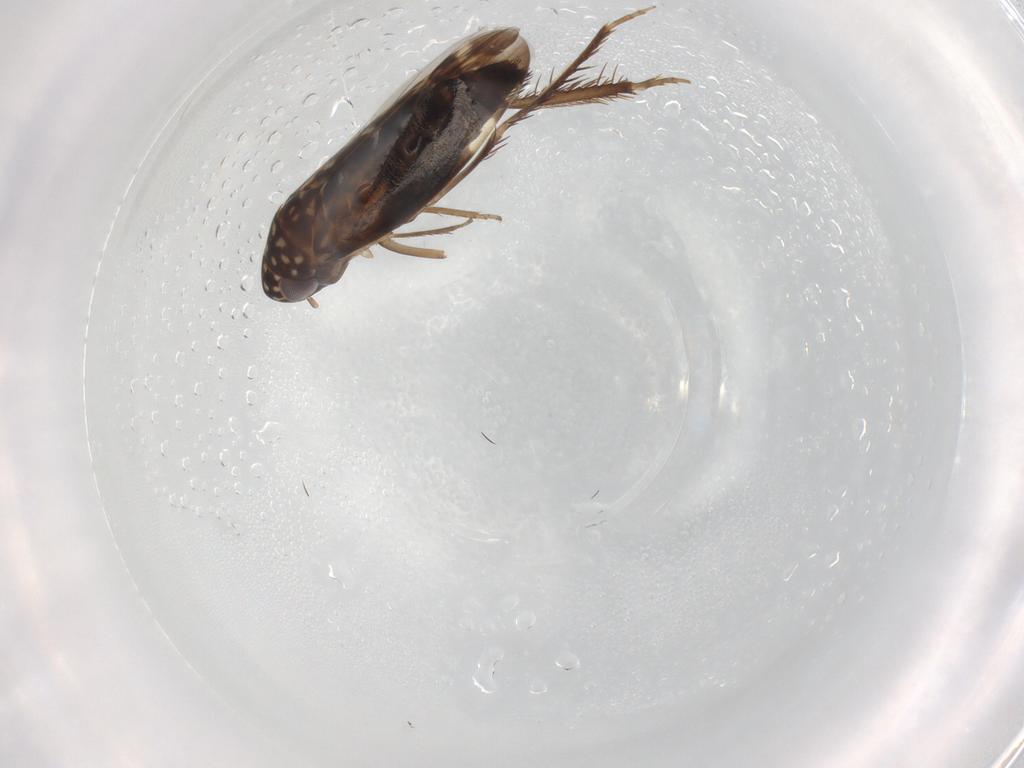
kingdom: Animalia
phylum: Arthropoda
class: Insecta
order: Hemiptera
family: Cicadellidae
